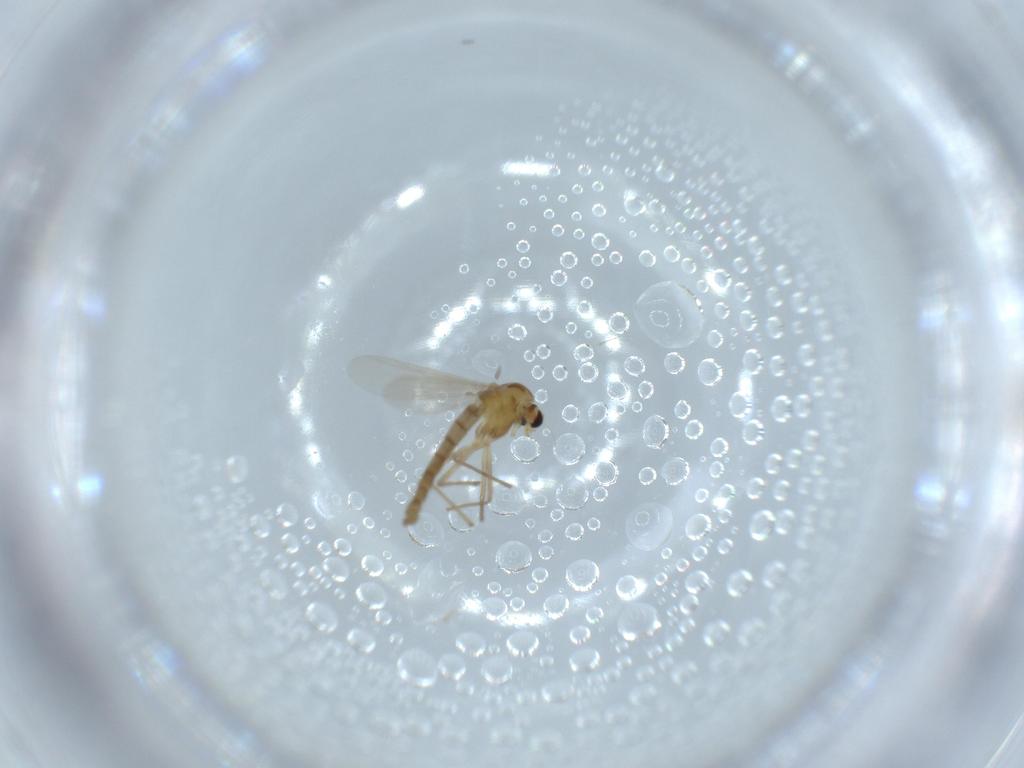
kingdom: Animalia
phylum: Arthropoda
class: Insecta
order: Diptera
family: Chironomidae
